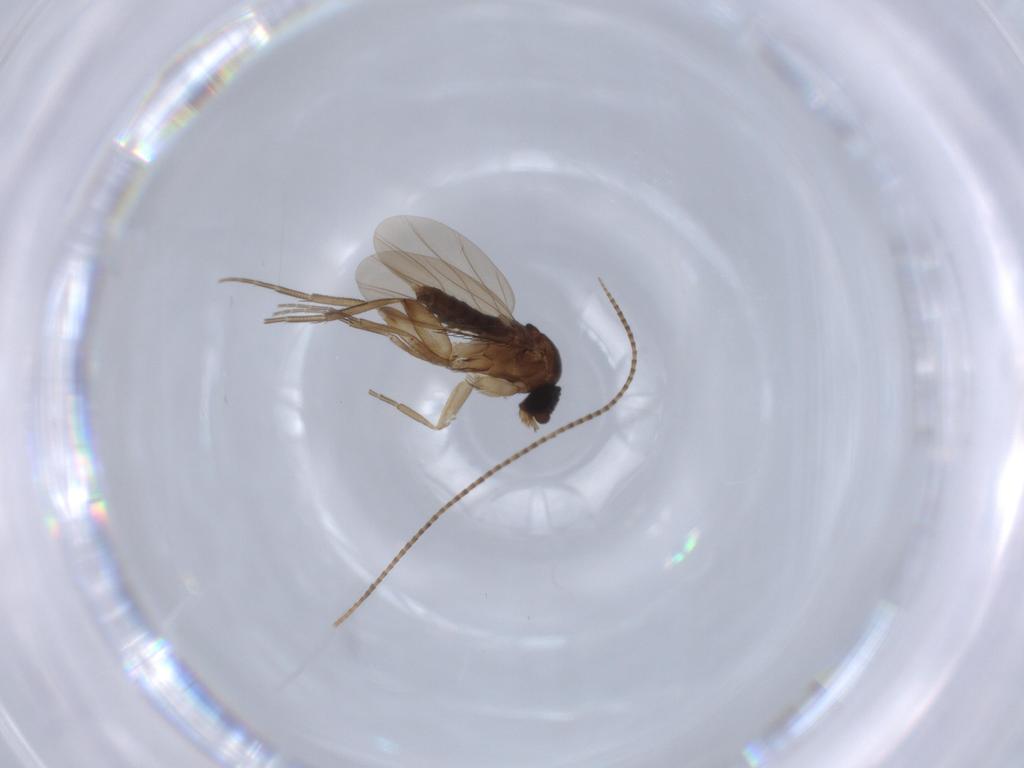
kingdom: Animalia
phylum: Arthropoda
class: Insecta
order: Diptera
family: Phoridae
